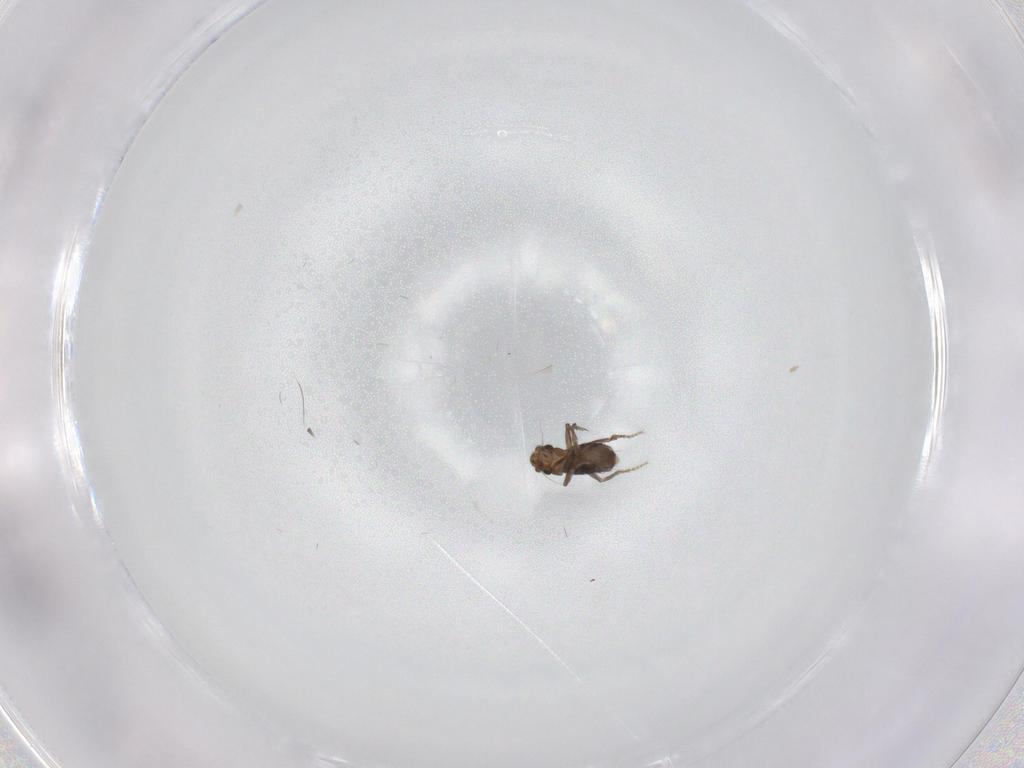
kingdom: Animalia
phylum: Arthropoda
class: Insecta
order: Diptera
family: Phoridae
